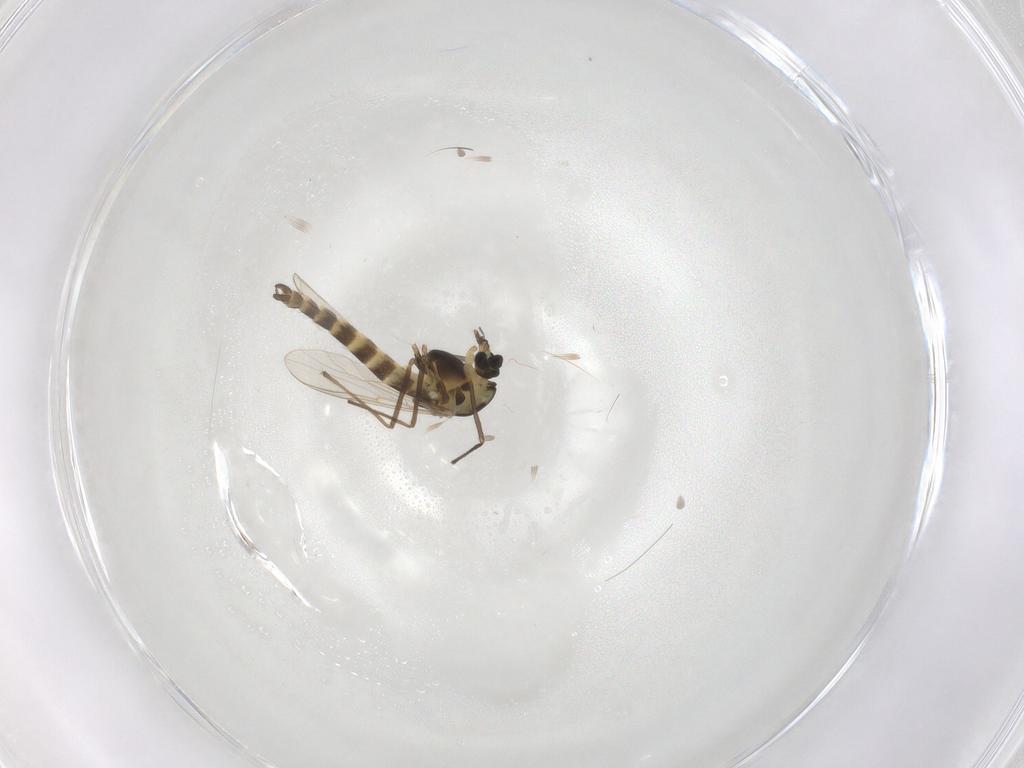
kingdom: Animalia
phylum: Arthropoda
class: Insecta
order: Diptera
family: Chironomidae
